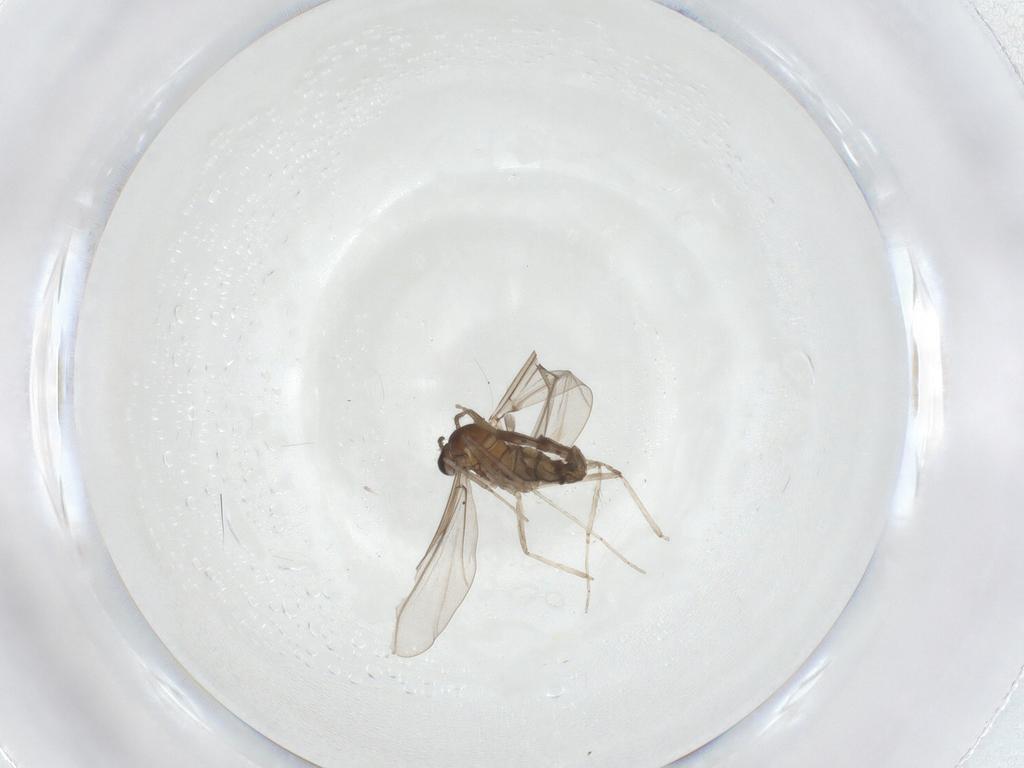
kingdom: Animalia
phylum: Arthropoda
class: Insecta
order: Diptera
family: Cecidomyiidae
